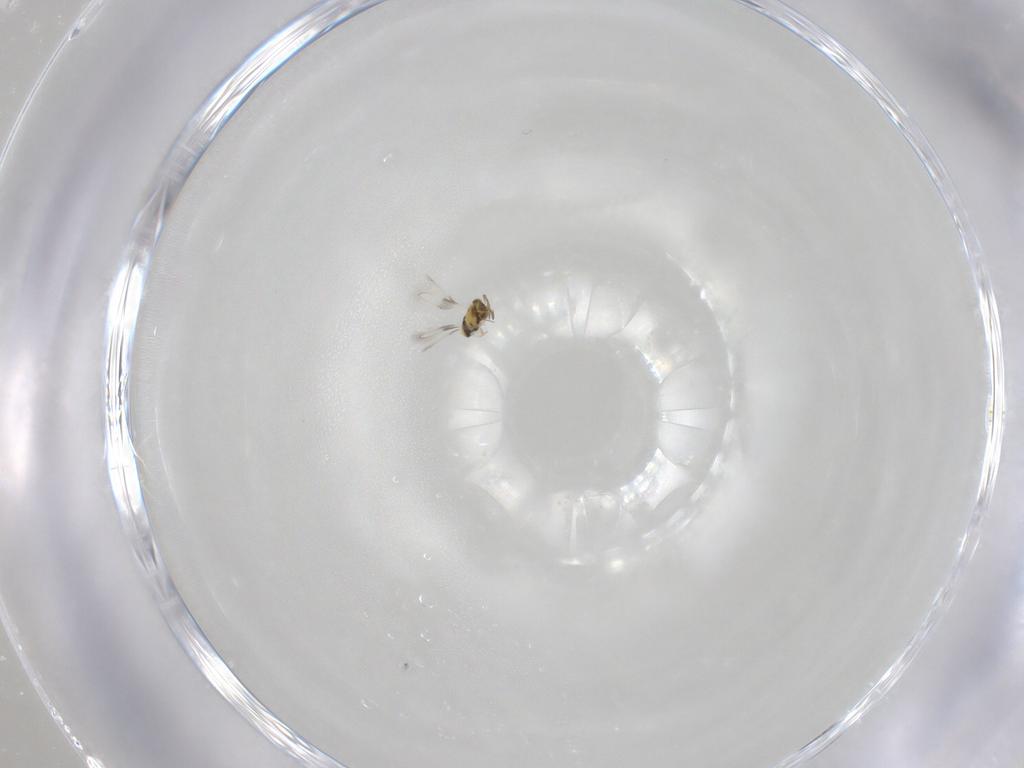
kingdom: Animalia
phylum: Arthropoda
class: Insecta
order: Hymenoptera
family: Aphelinidae
